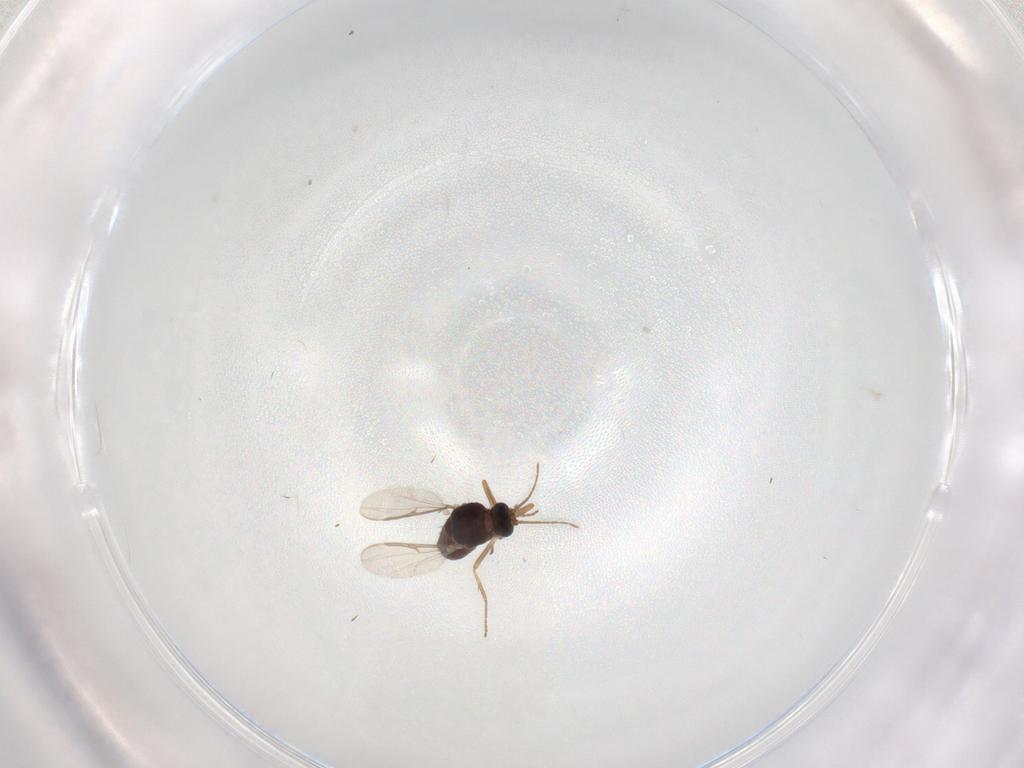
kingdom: Animalia
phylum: Arthropoda
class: Insecta
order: Diptera
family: Ceratopogonidae
